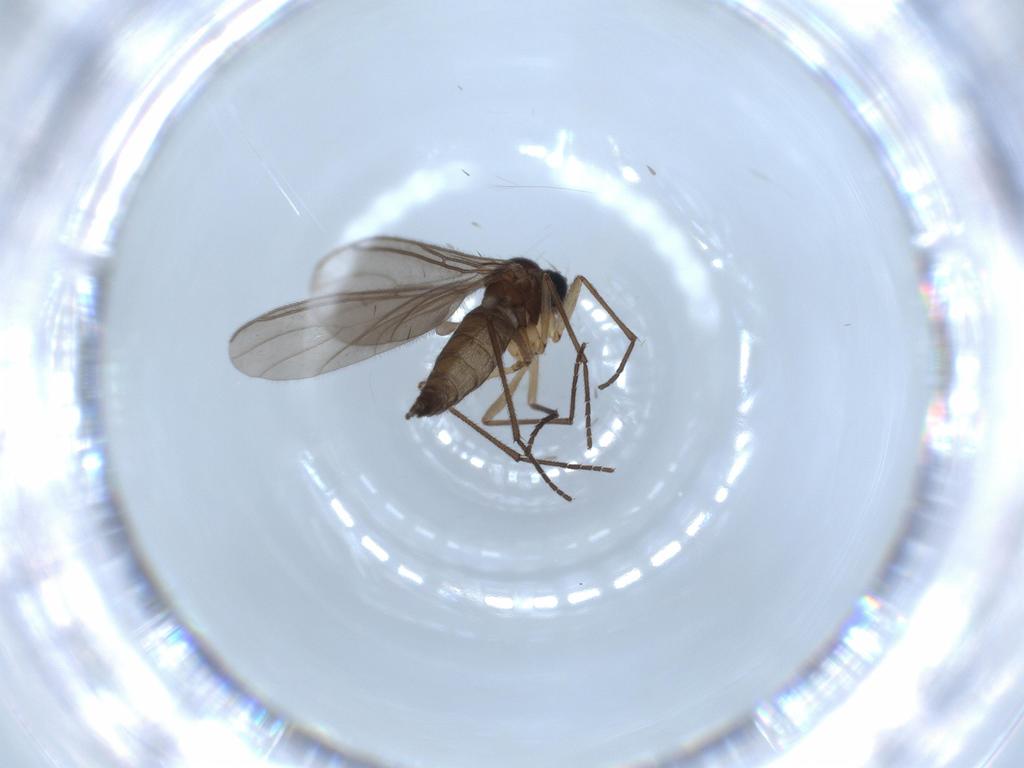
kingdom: Animalia
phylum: Arthropoda
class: Insecta
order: Diptera
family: Sciaridae
